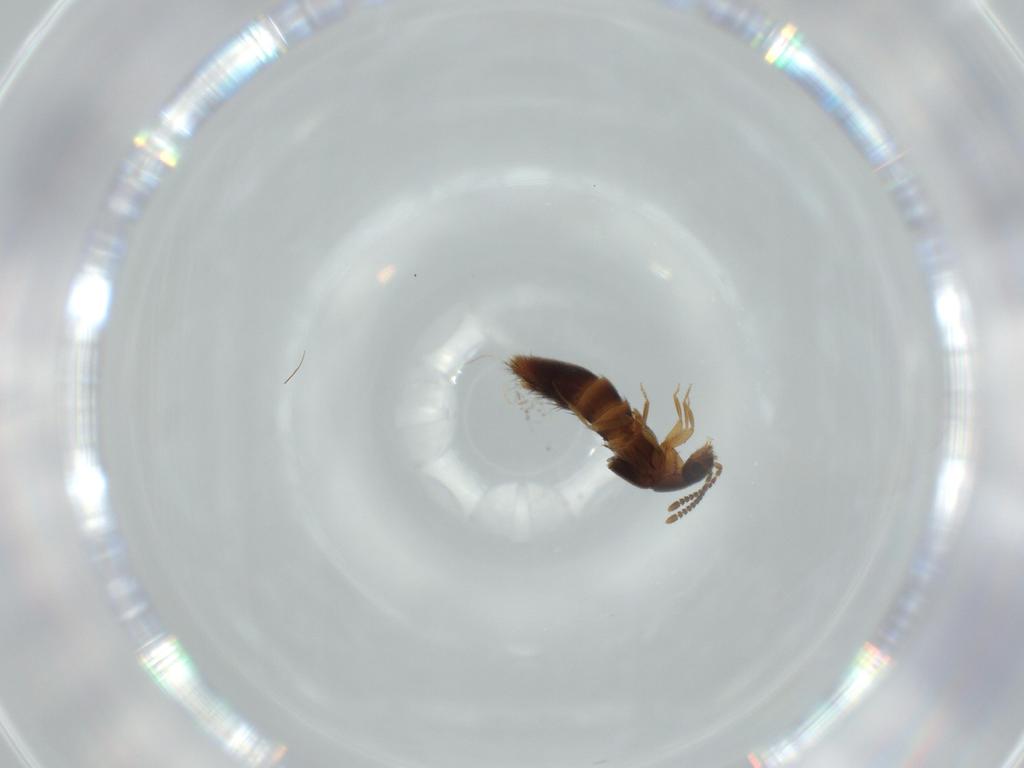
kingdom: Animalia
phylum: Arthropoda
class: Insecta
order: Coleoptera
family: Staphylinidae
